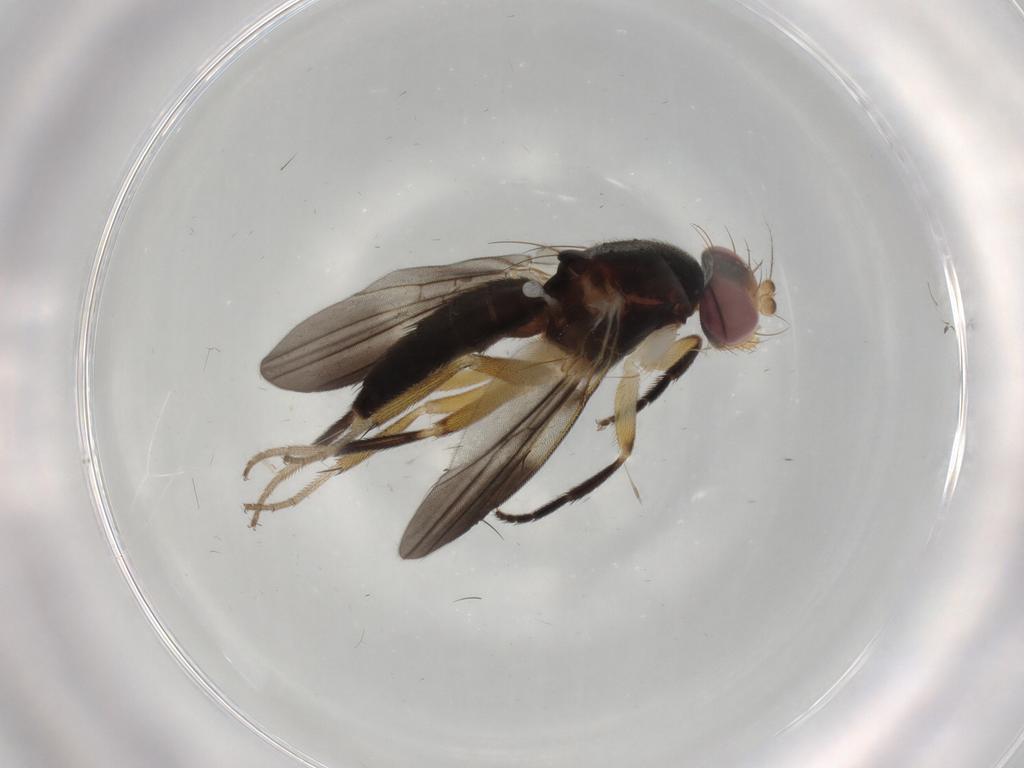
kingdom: Animalia
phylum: Arthropoda
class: Insecta
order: Diptera
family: Clusiidae
